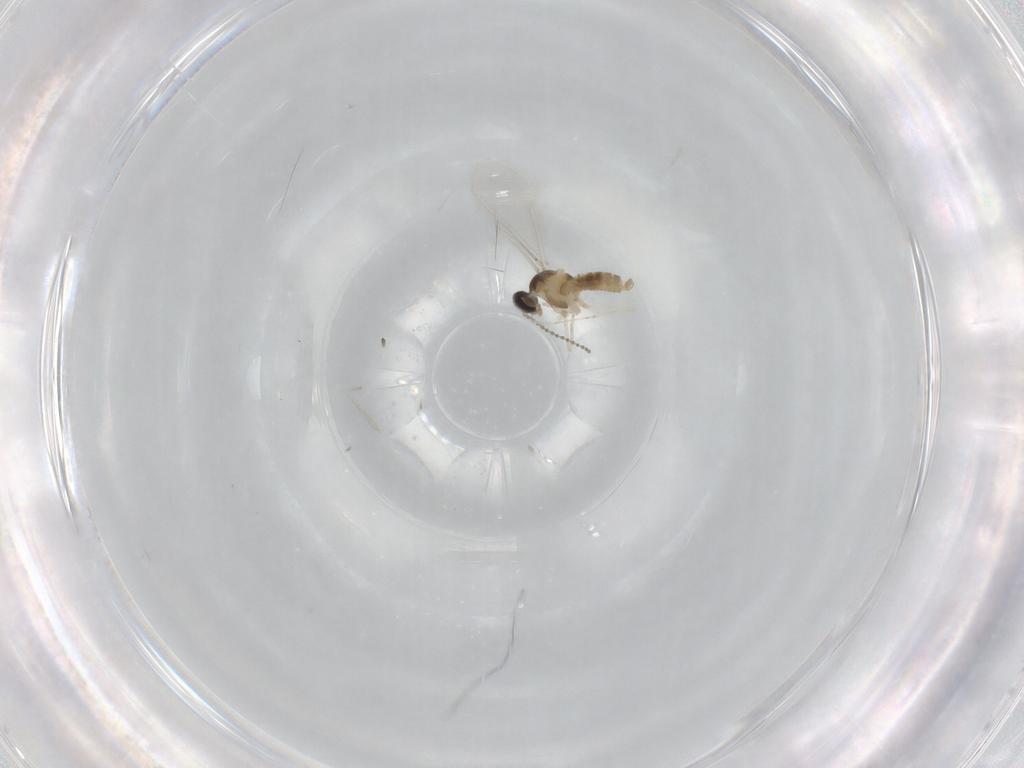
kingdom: Animalia
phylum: Arthropoda
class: Insecta
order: Diptera
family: Cecidomyiidae
